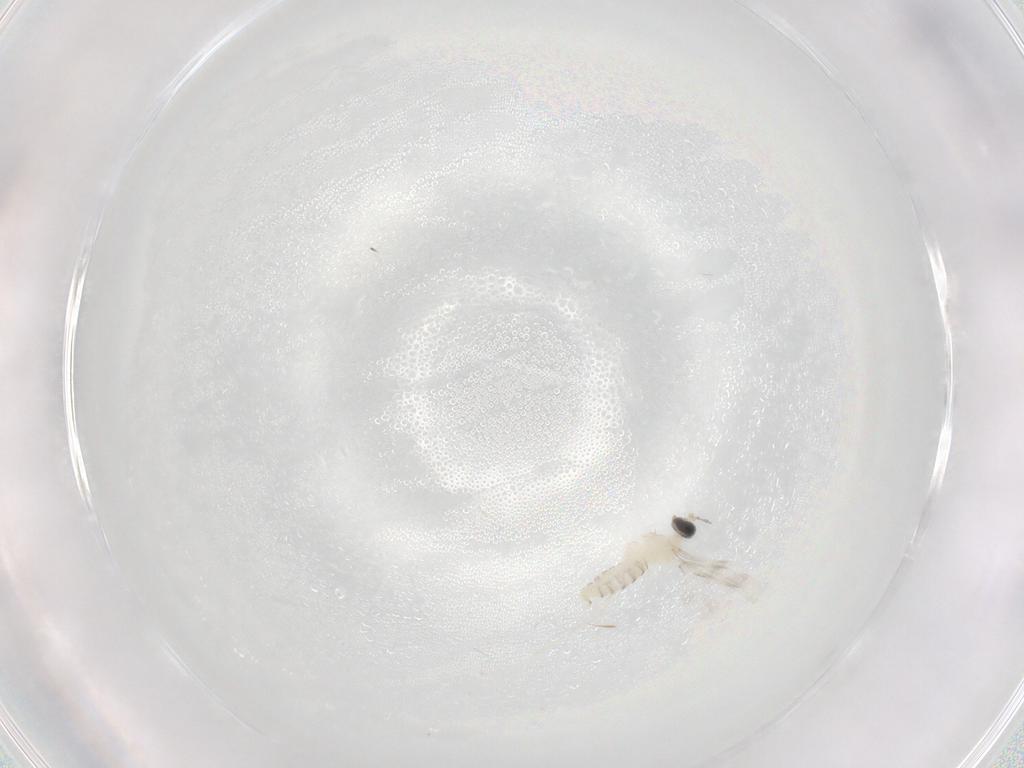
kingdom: Animalia
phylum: Arthropoda
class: Insecta
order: Diptera
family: Cecidomyiidae
